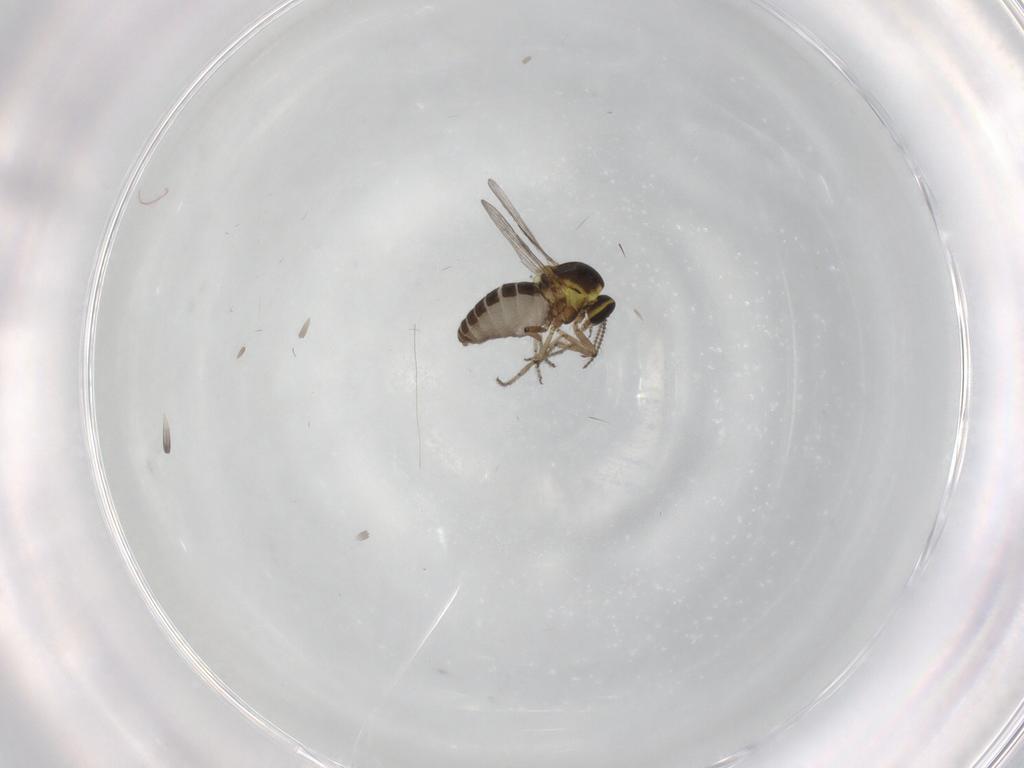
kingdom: Animalia
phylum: Arthropoda
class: Insecta
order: Diptera
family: Ceratopogonidae
